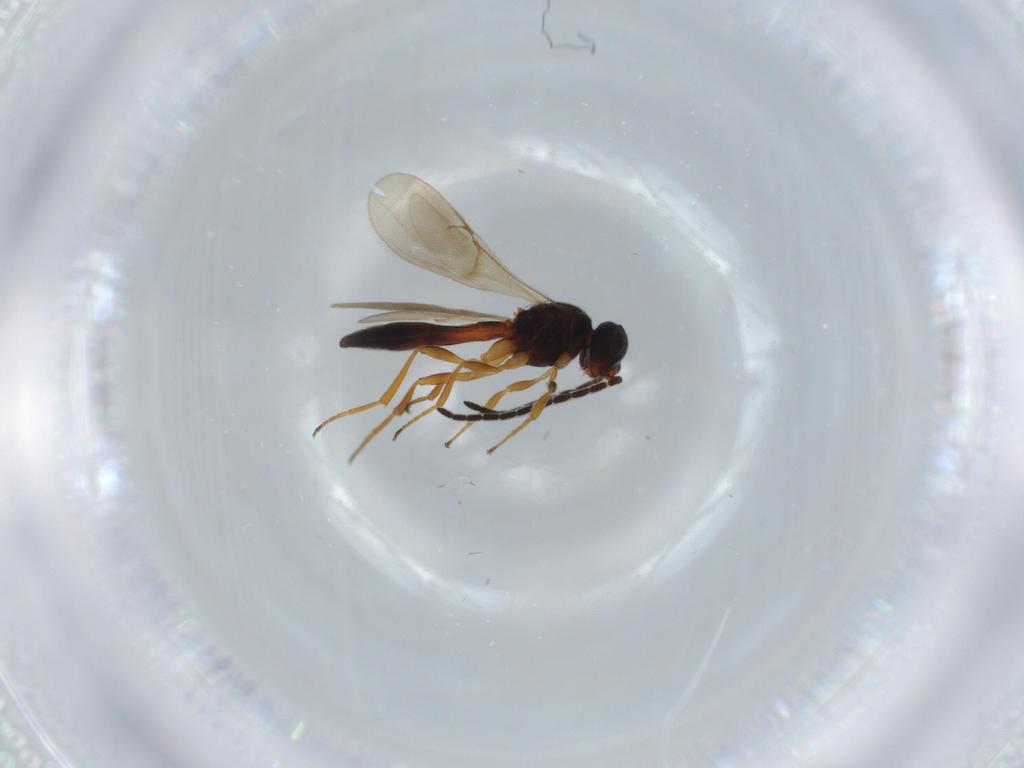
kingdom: Animalia
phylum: Arthropoda
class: Insecta
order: Hymenoptera
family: Scelionidae
